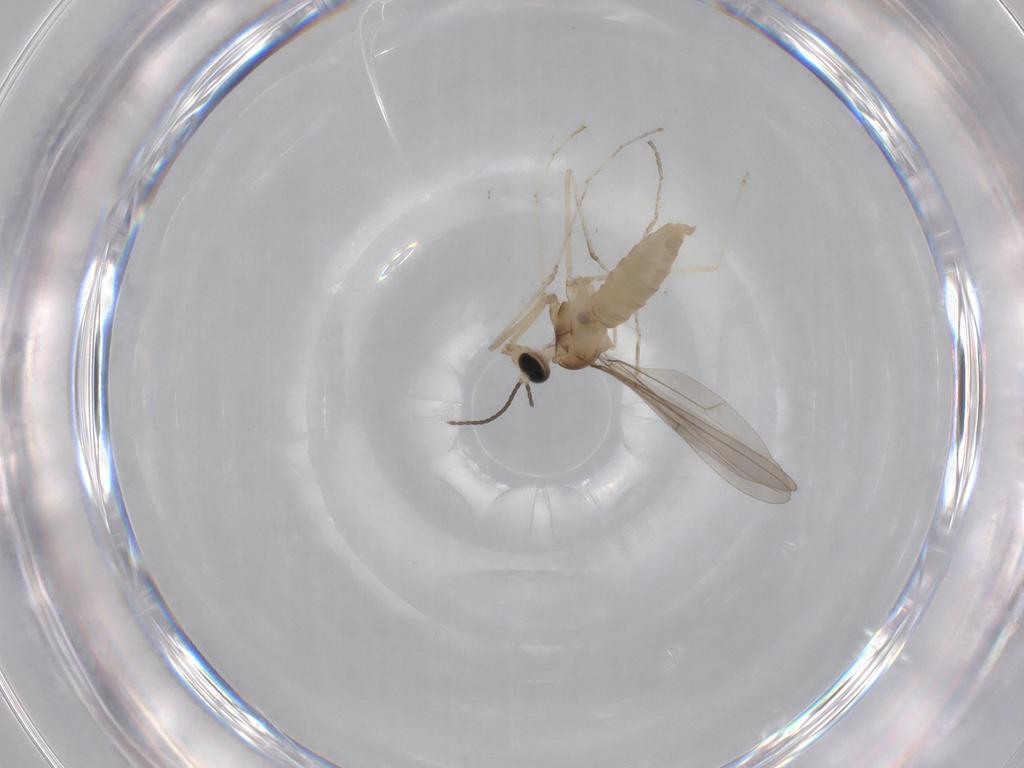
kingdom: Animalia
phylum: Arthropoda
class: Insecta
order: Diptera
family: Cecidomyiidae
